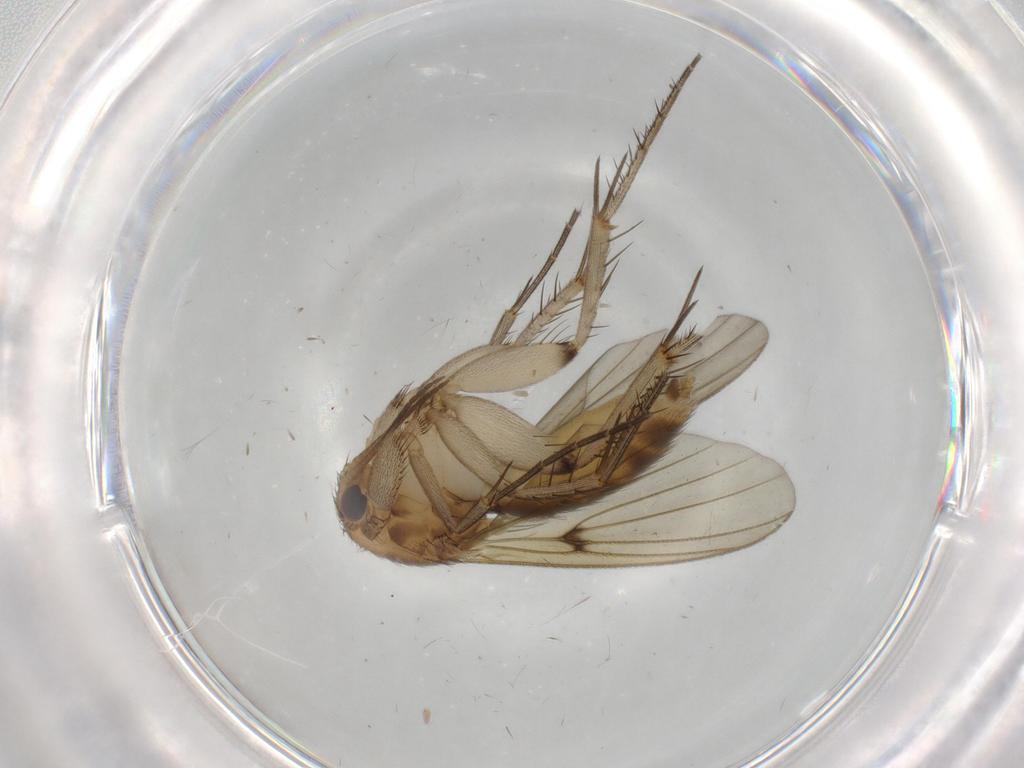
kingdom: Animalia
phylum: Arthropoda
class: Insecta
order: Diptera
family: Mycetophilidae
